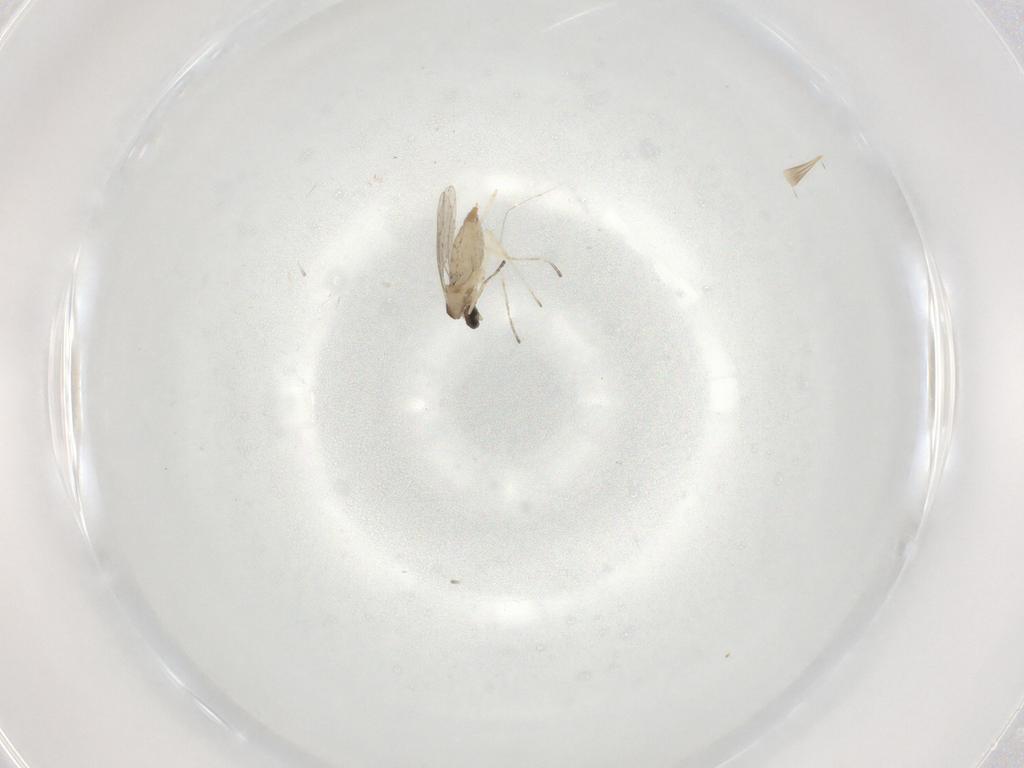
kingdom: Animalia
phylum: Arthropoda
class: Insecta
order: Diptera
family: Cecidomyiidae
